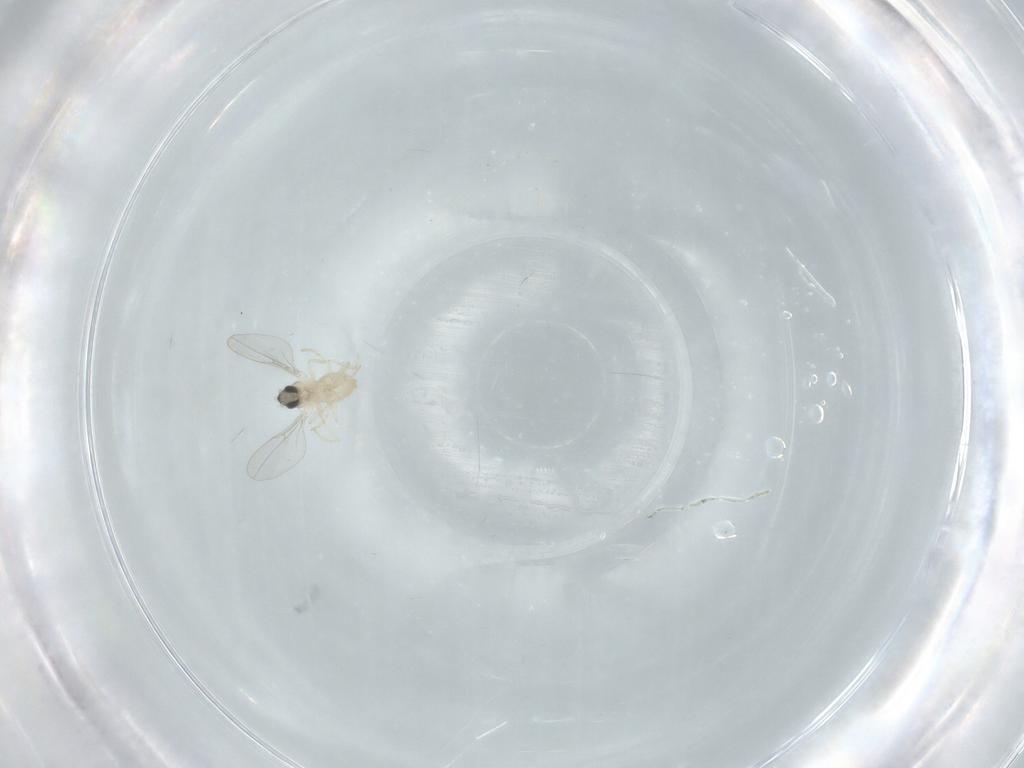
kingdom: Animalia
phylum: Arthropoda
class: Insecta
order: Diptera
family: Cecidomyiidae
